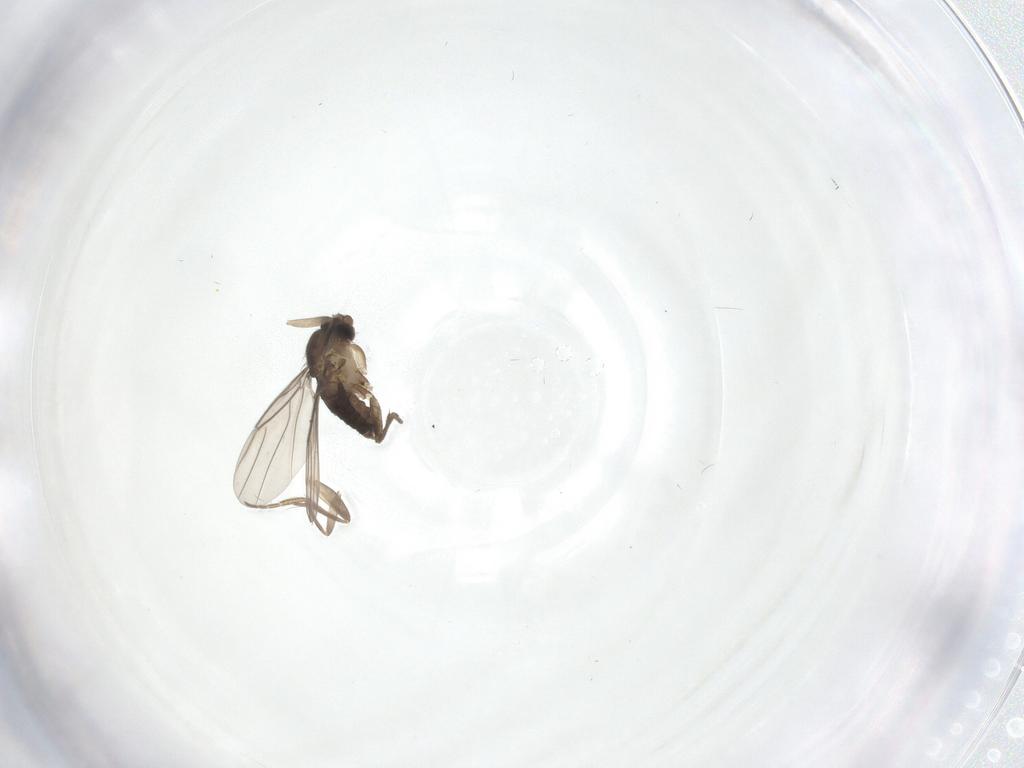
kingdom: Animalia
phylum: Arthropoda
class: Insecta
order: Diptera
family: Phoridae
